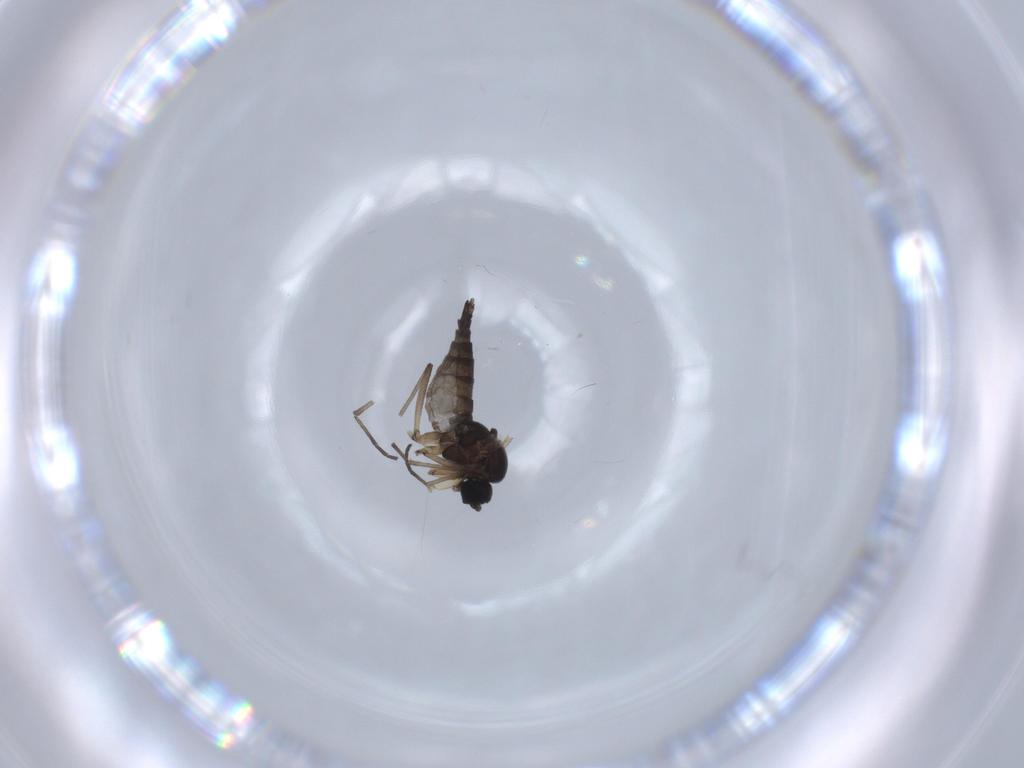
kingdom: Animalia
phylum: Arthropoda
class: Insecta
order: Diptera
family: Sciaridae
